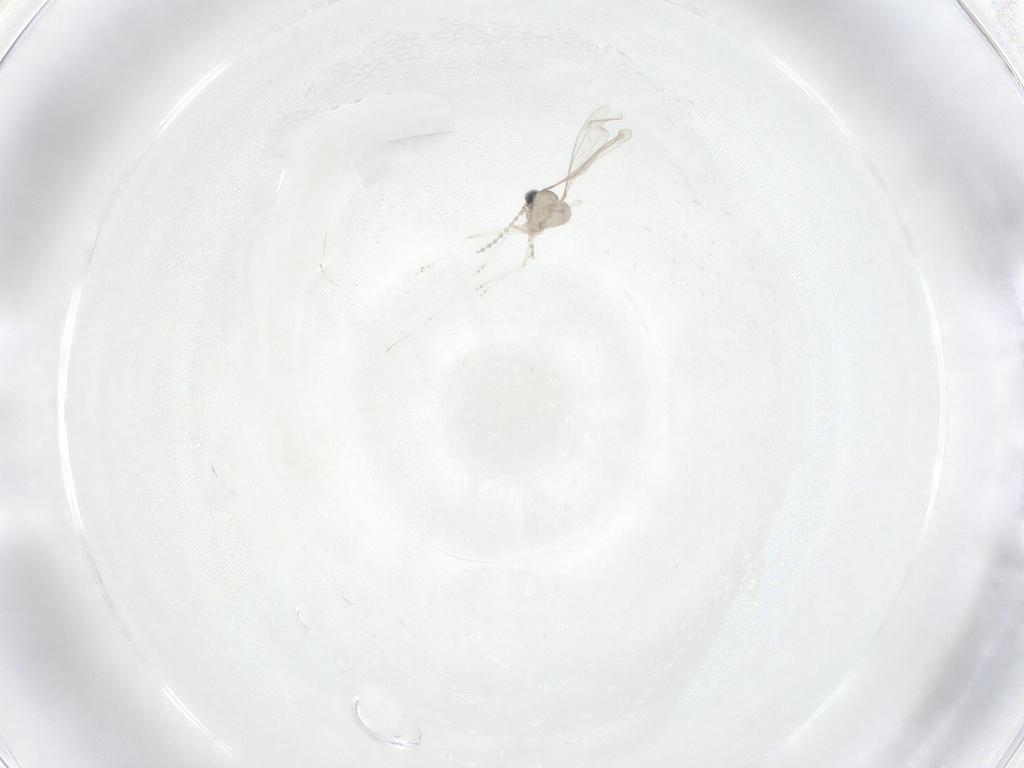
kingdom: Animalia
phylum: Arthropoda
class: Insecta
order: Diptera
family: Cecidomyiidae
